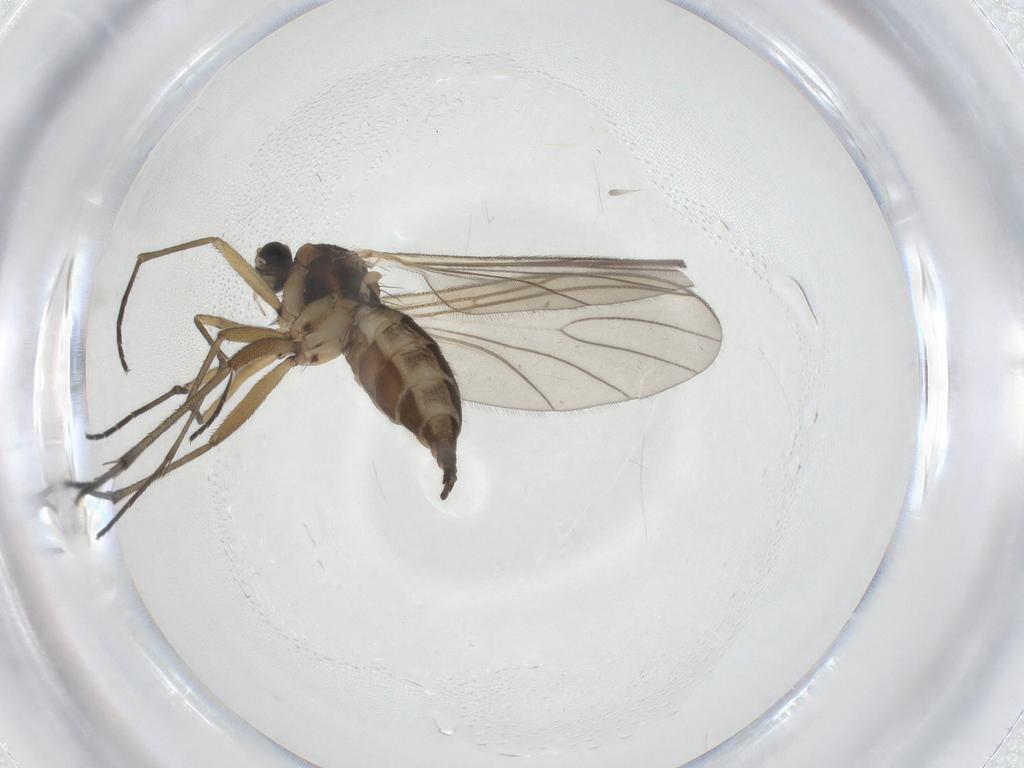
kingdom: Animalia
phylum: Arthropoda
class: Insecta
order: Diptera
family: Sciaridae
